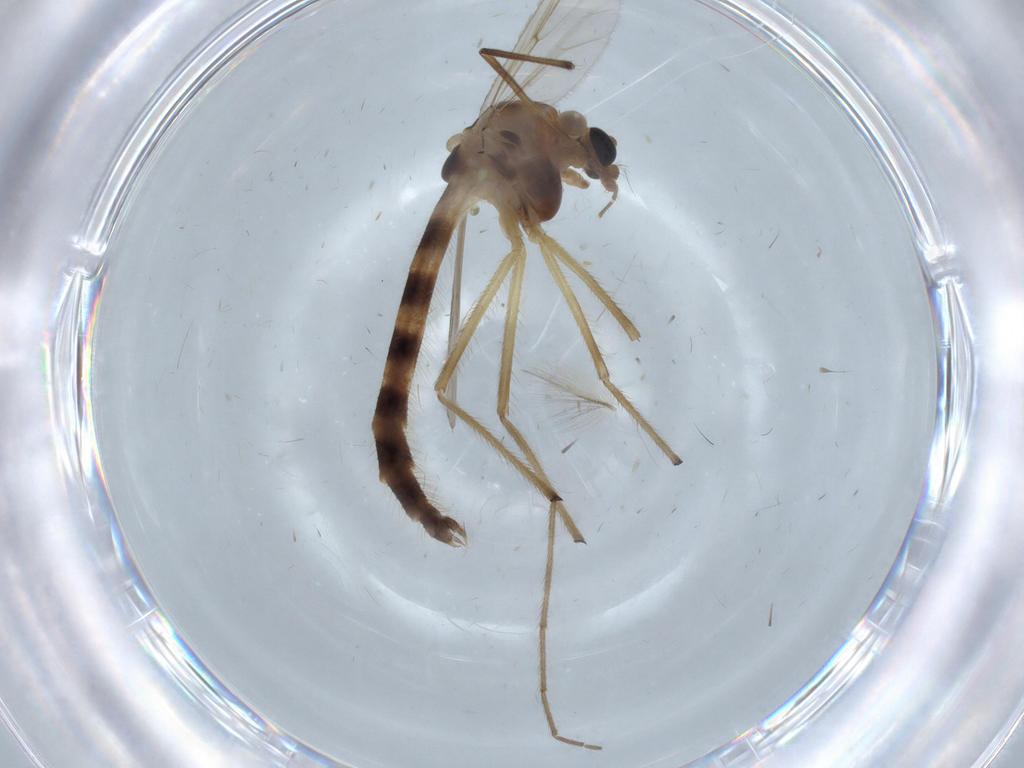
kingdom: Animalia
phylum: Arthropoda
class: Insecta
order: Diptera
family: Chironomidae
